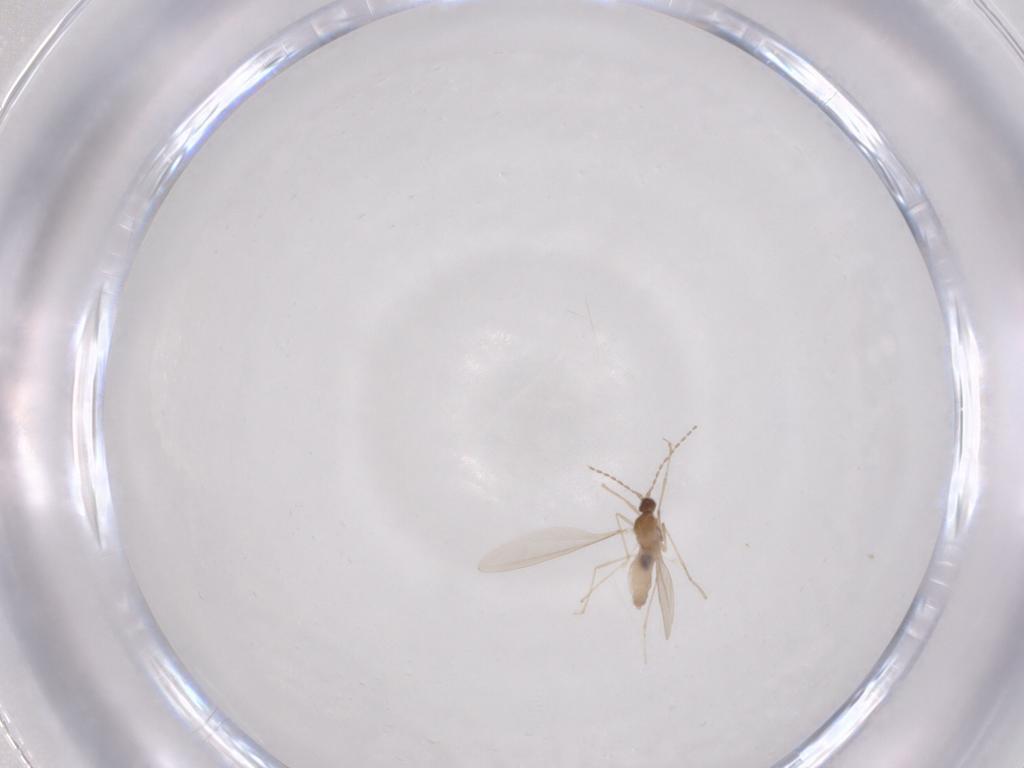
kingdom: Animalia
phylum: Arthropoda
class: Insecta
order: Diptera
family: Cecidomyiidae
